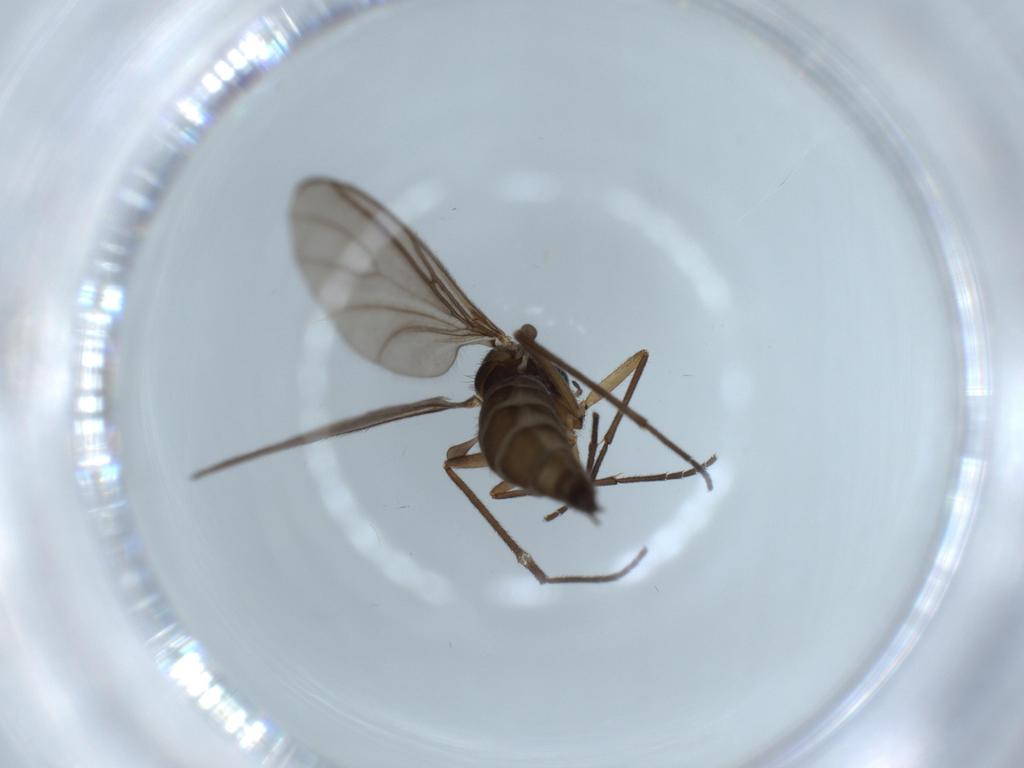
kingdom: Animalia
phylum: Arthropoda
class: Insecta
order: Diptera
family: Sciaridae
